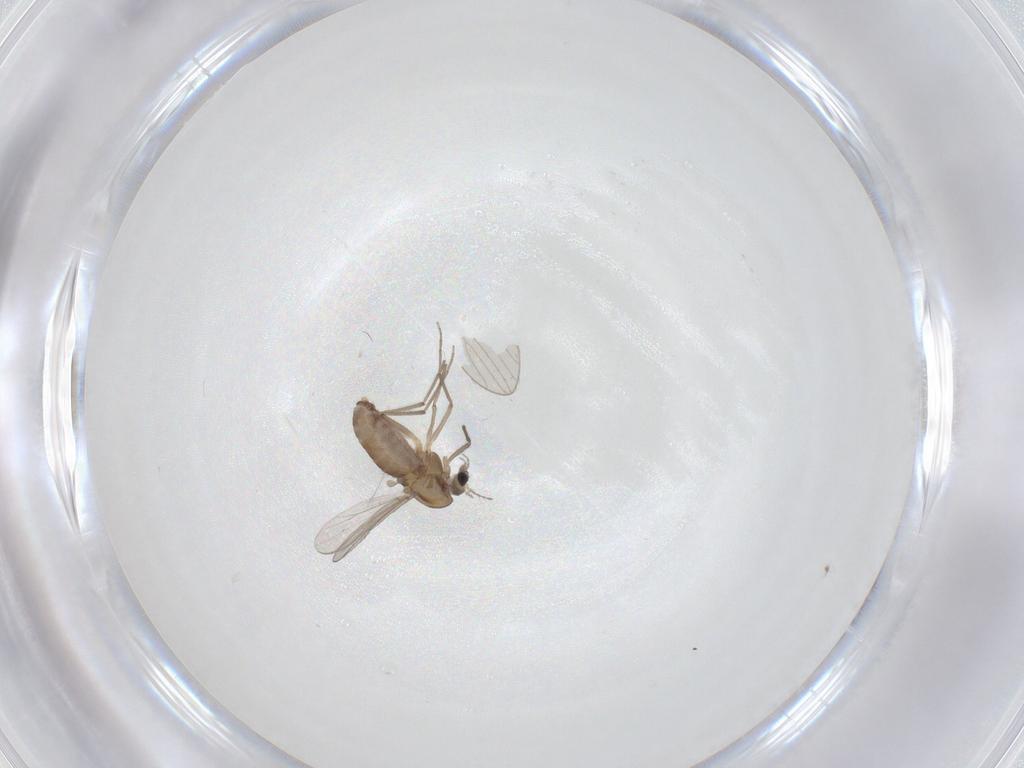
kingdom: Animalia
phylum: Arthropoda
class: Insecta
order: Diptera
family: Chironomidae
